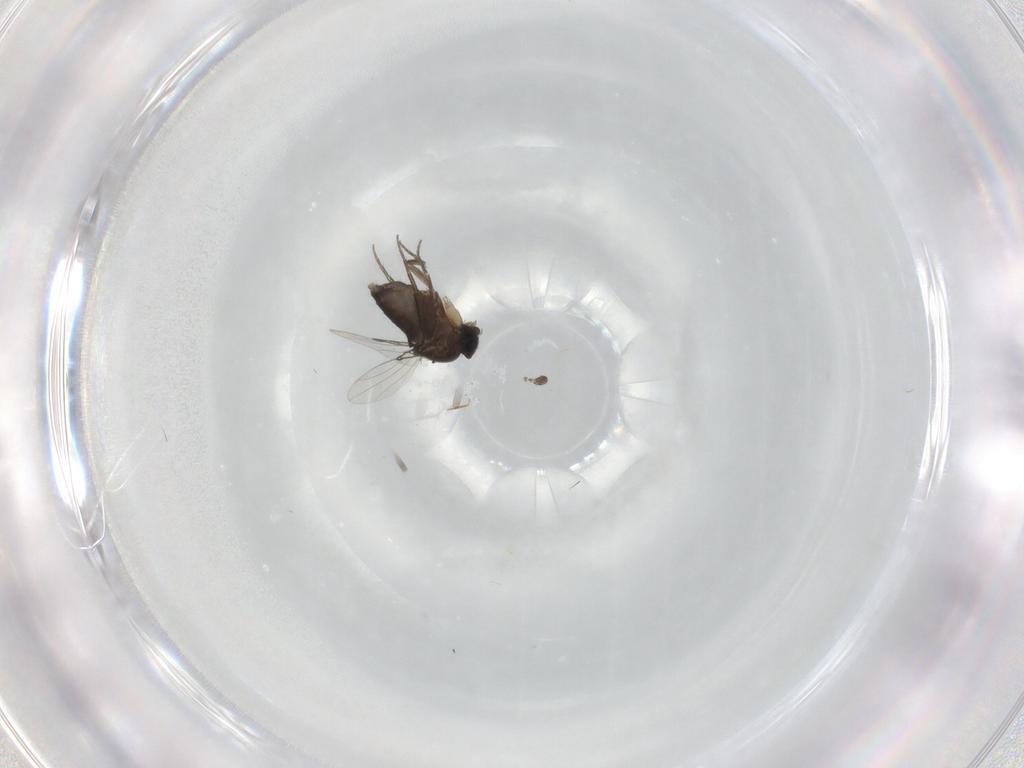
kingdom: Animalia
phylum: Arthropoda
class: Insecta
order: Diptera
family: Phoridae
